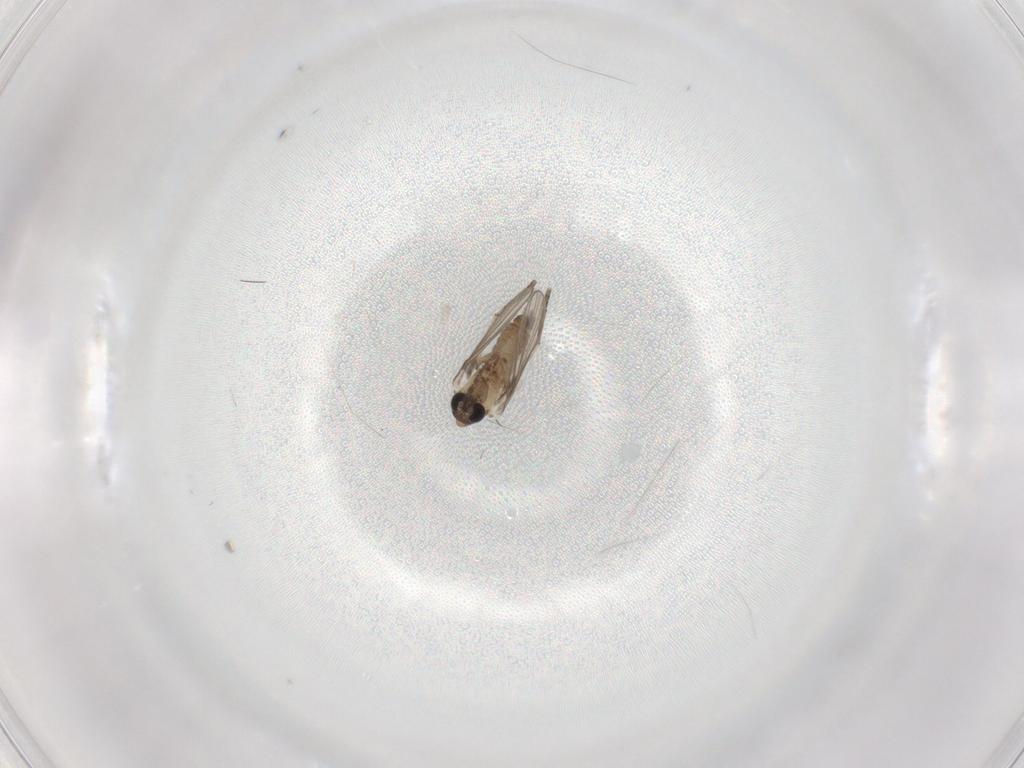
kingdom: Animalia
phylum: Arthropoda
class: Insecta
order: Diptera
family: Psychodidae
